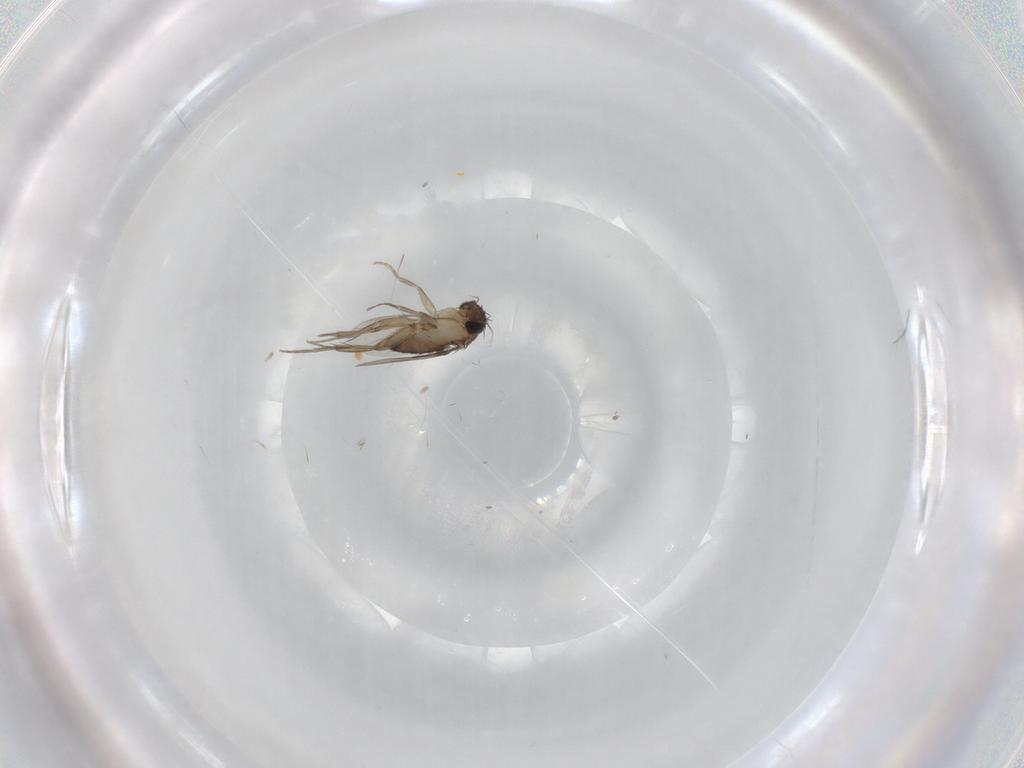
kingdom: Animalia
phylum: Arthropoda
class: Insecta
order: Diptera
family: Phoridae
